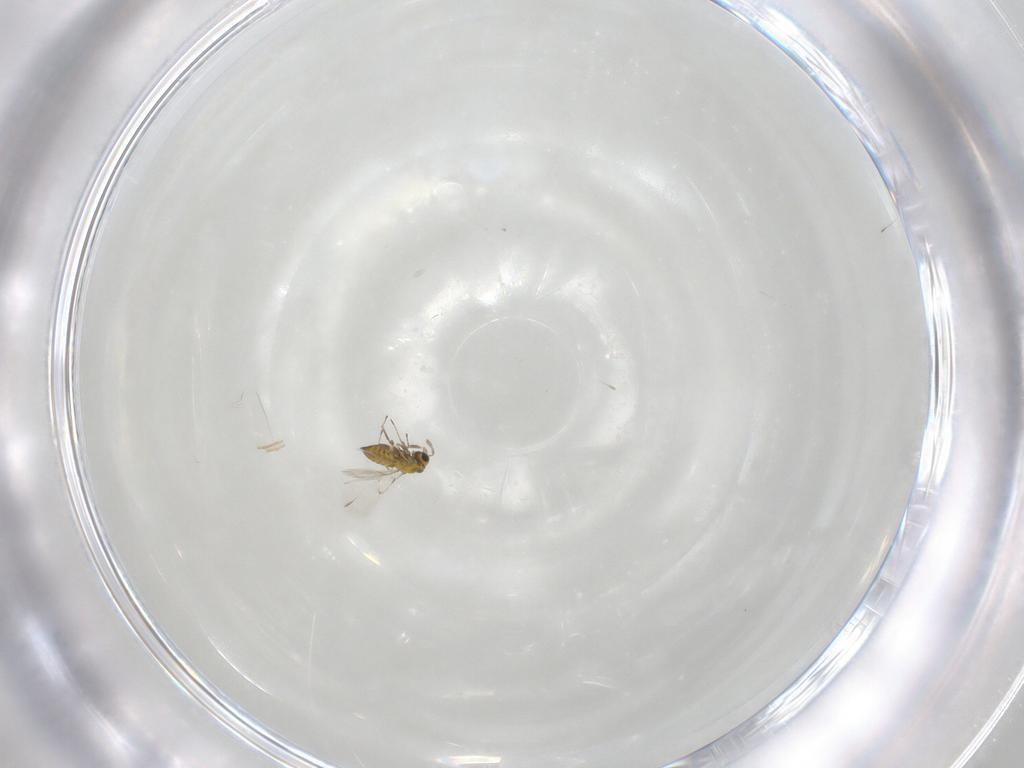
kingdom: Animalia
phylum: Arthropoda
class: Insecta
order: Hymenoptera
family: Trichogrammatidae
